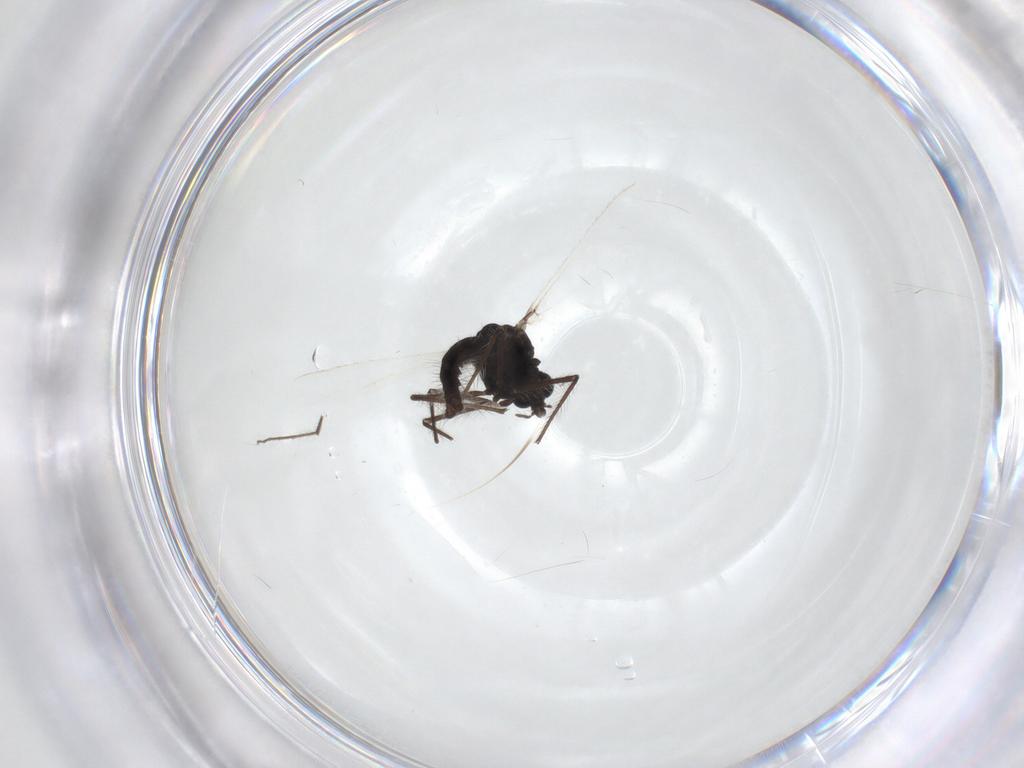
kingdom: Animalia
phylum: Arthropoda
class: Insecta
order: Diptera
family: Chironomidae
